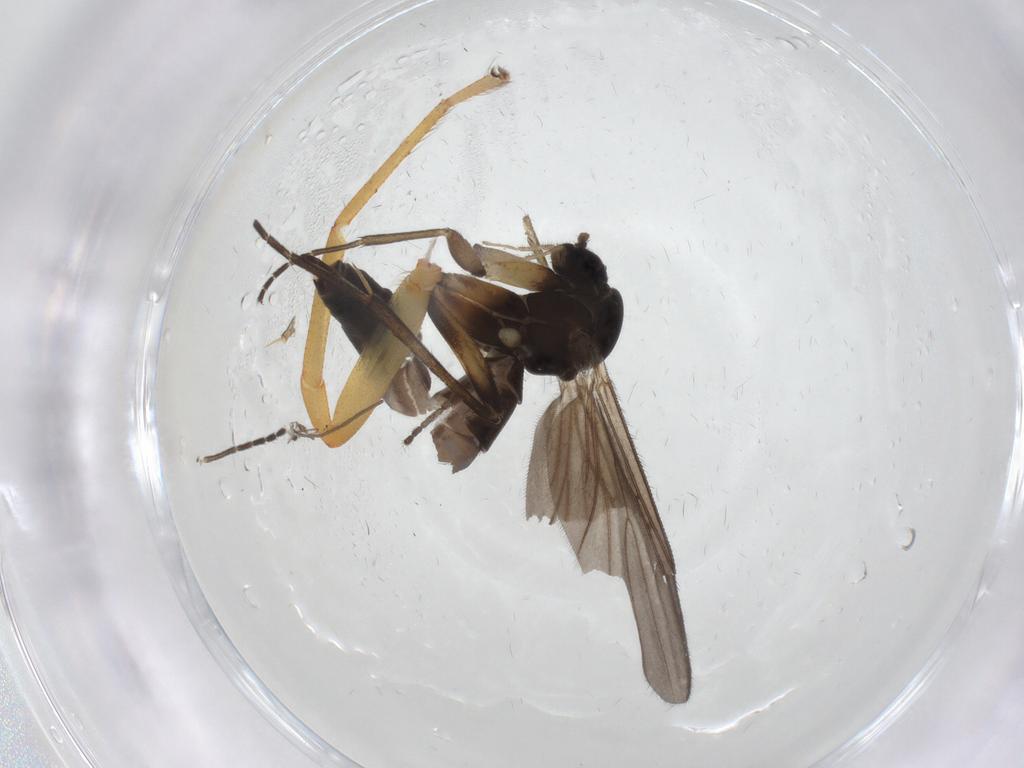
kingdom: Animalia
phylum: Arthropoda
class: Insecta
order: Diptera
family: Mycetophilidae
